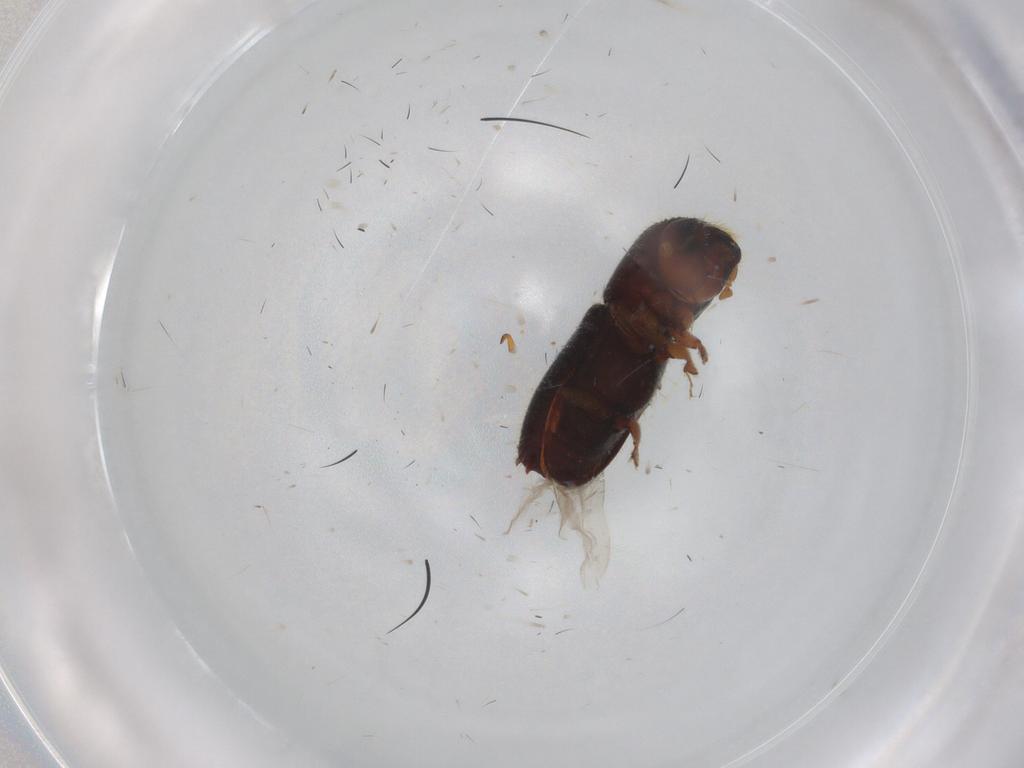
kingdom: Animalia
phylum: Arthropoda
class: Insecta
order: Coleoptera
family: Curculionidae
